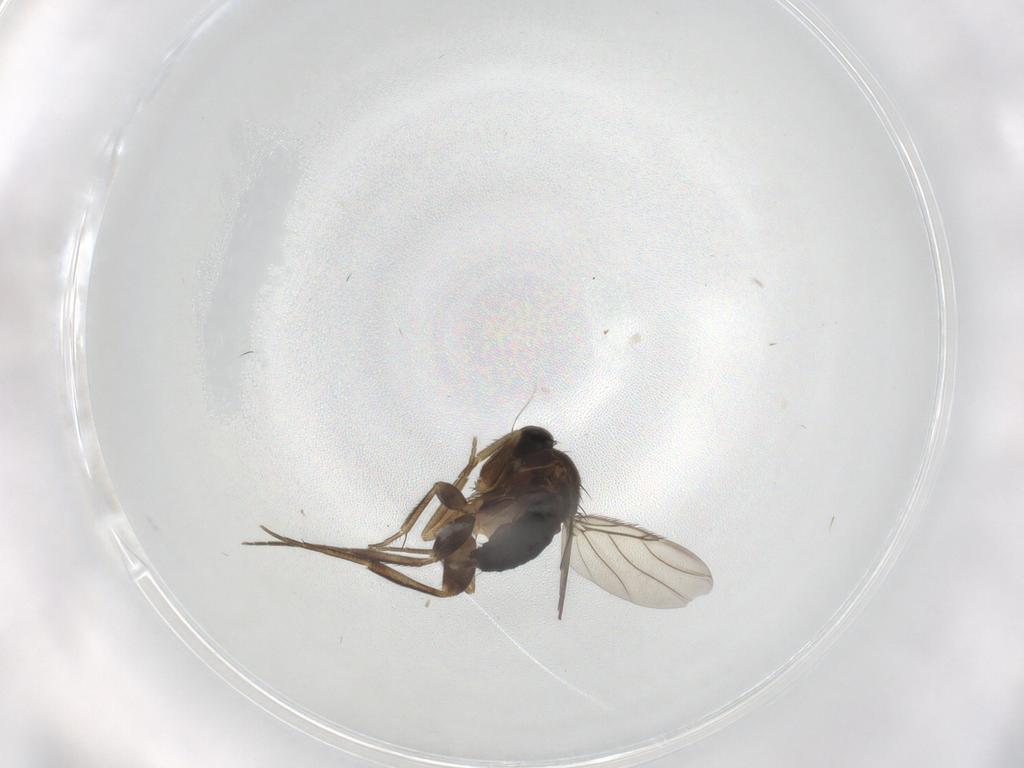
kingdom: Animalia
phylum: Arthropoda
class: Insecta
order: Diptera
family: Phoridae
